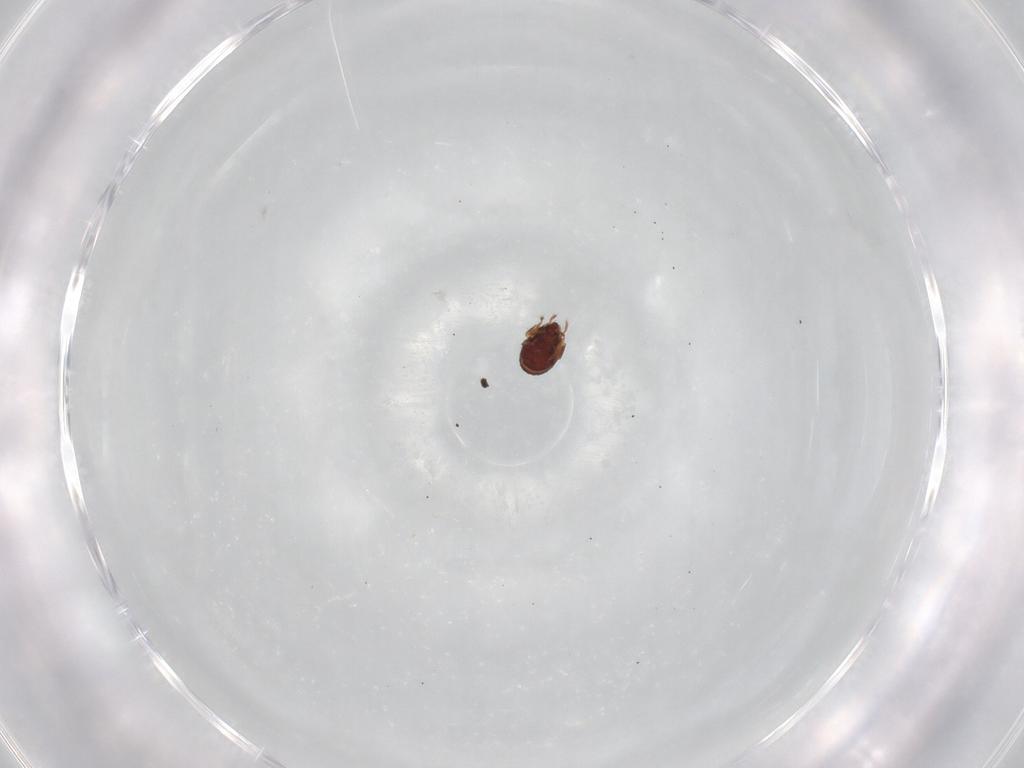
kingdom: Animalia
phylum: Arthropoda
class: Arachnida
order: Sarcoptiformes
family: Phenopelopidae
